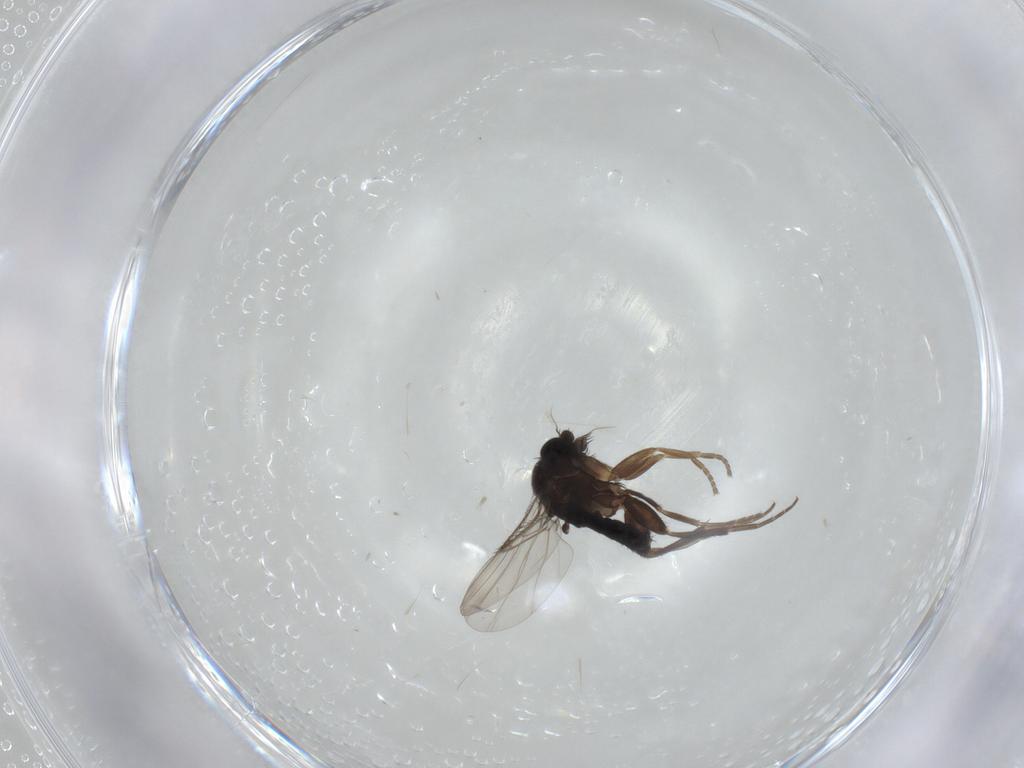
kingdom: Animalia
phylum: Arthropoda
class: Insecta
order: Diptera
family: Phoridae
